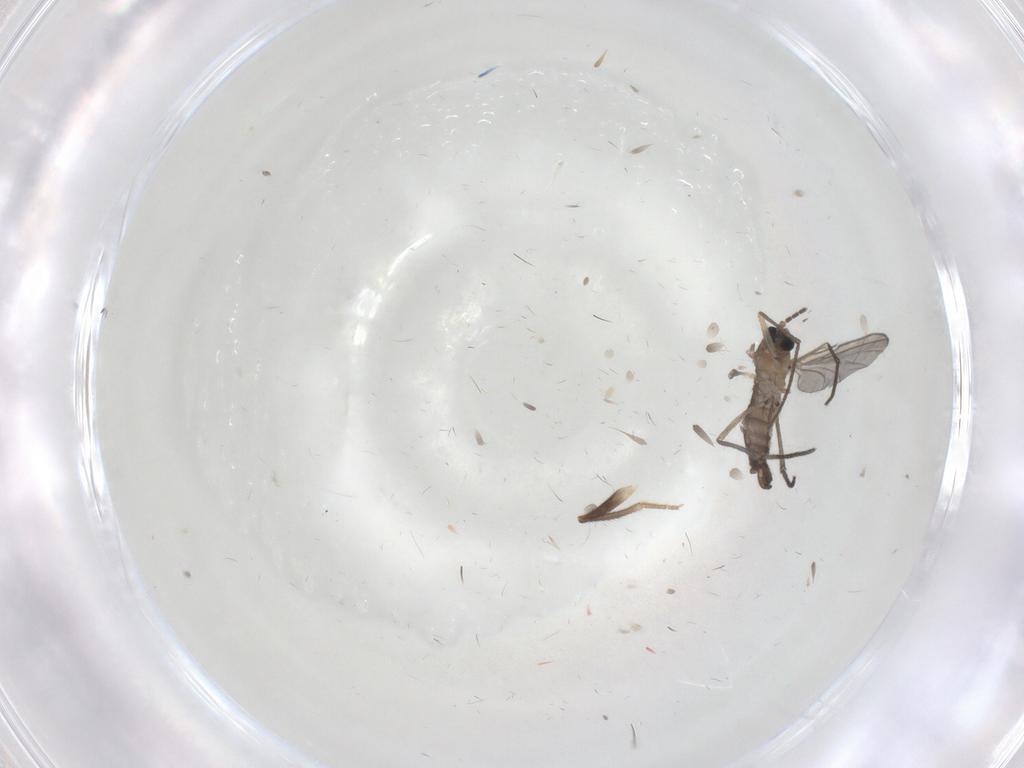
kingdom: Animalia
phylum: Arthropoda
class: Insecta
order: Diptera
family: Sciaridae
